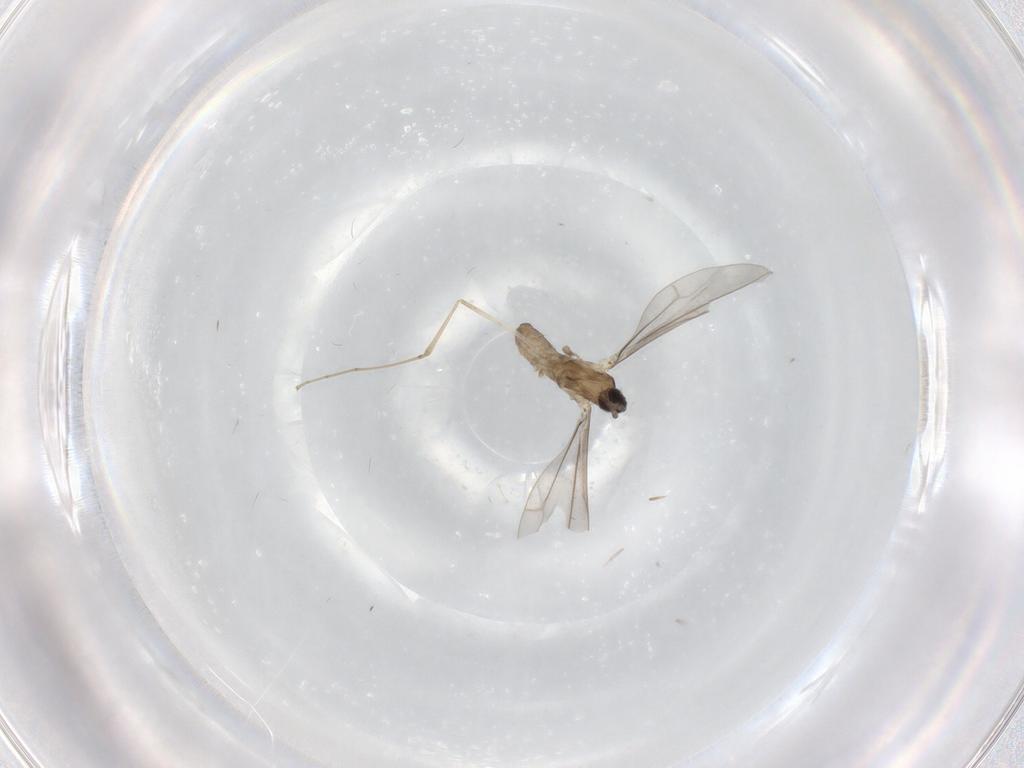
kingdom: Animalia
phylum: Arthropoda
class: Insecta
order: Diptera
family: Cecidomyiidae
